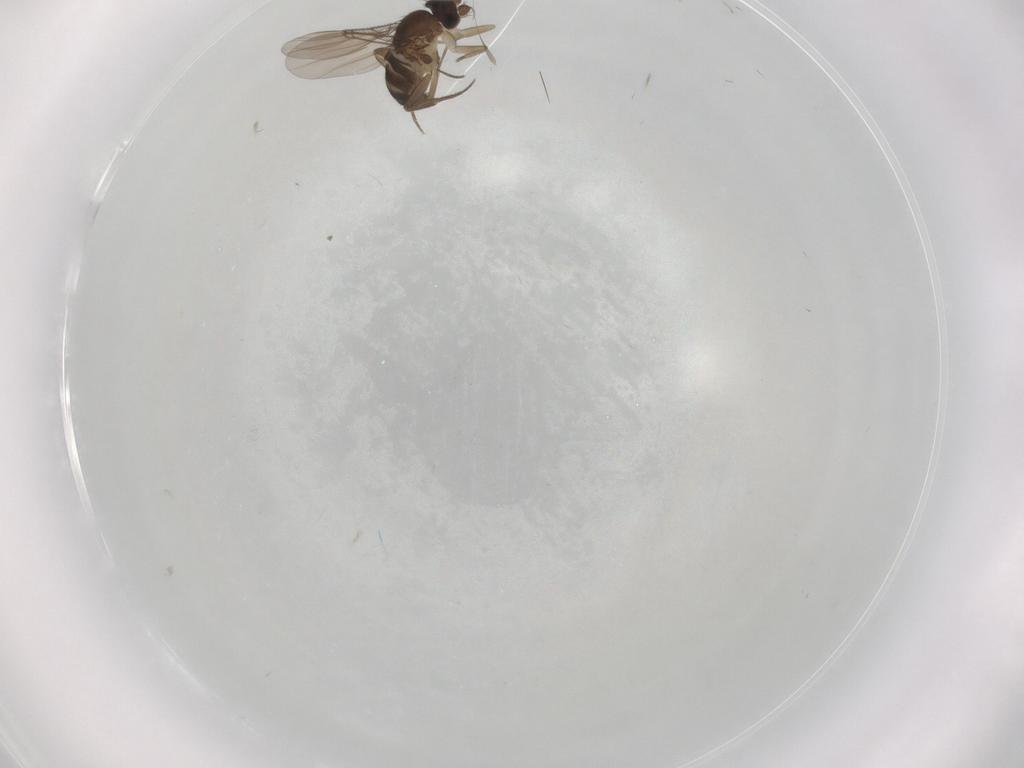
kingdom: Animalia
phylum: Arthropoda
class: Insecta
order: Diptera
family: Phoridae
